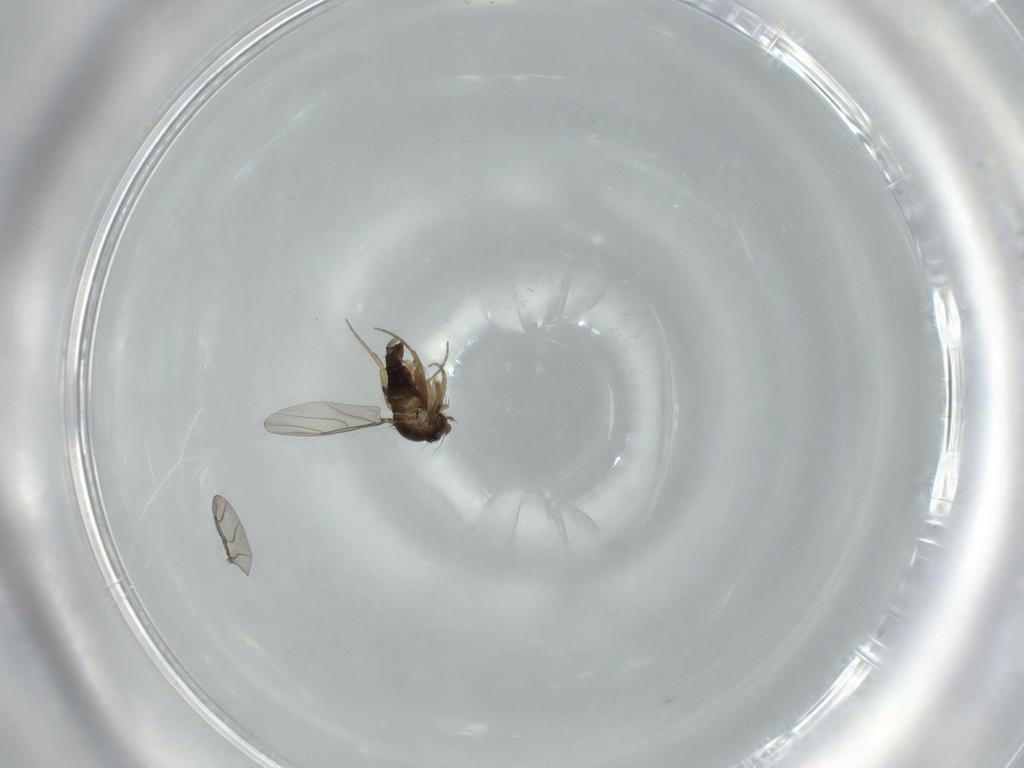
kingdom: Animalia
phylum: Arthropoda
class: Insecta
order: Diptera
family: Phoridae
